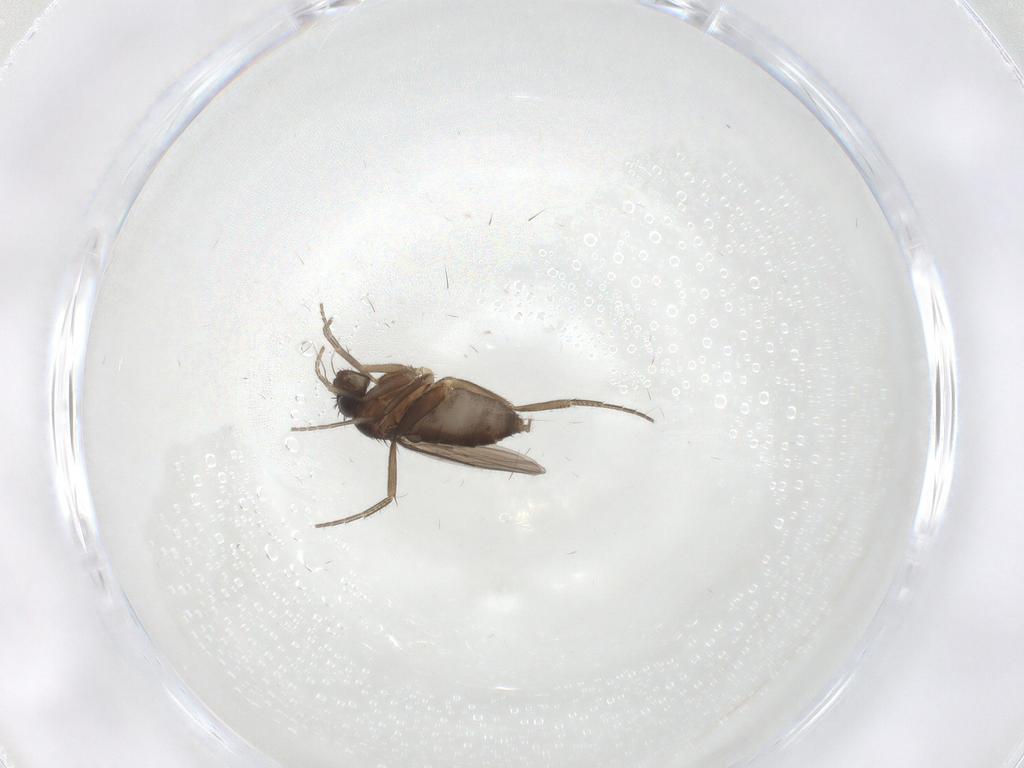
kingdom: Animalia
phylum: Arthropoda
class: Insecta
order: Diptera
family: Phoridae
